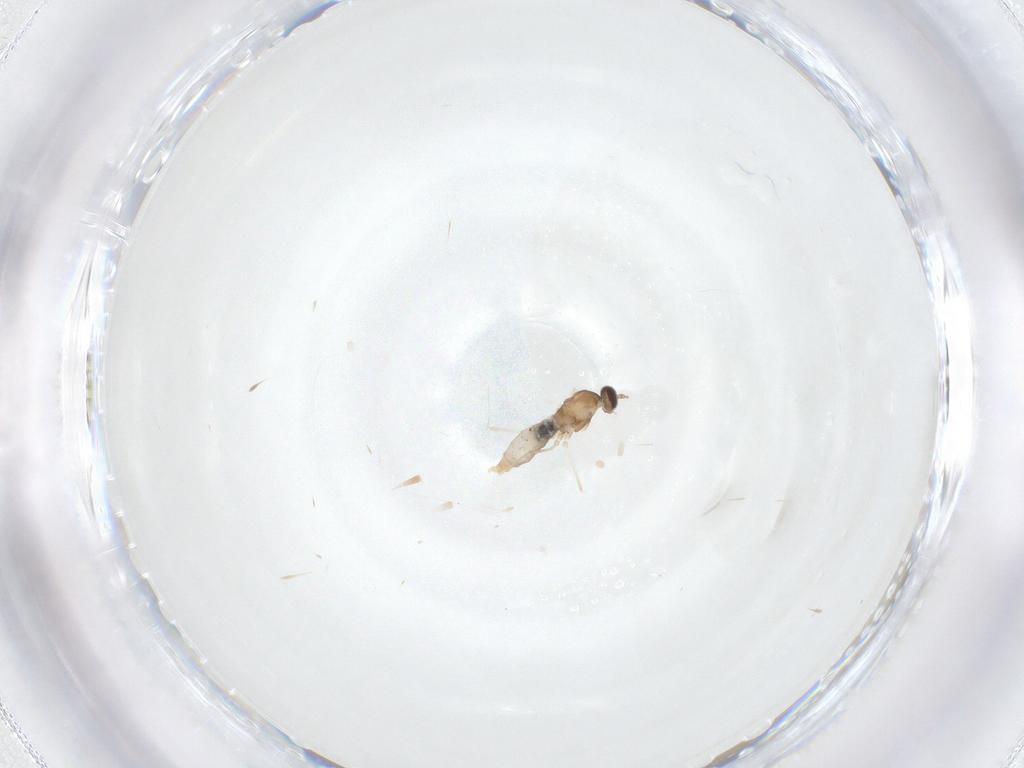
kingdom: Animalia
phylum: Arthropoda
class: Insecta
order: Diptera
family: Cecidomyiidae
